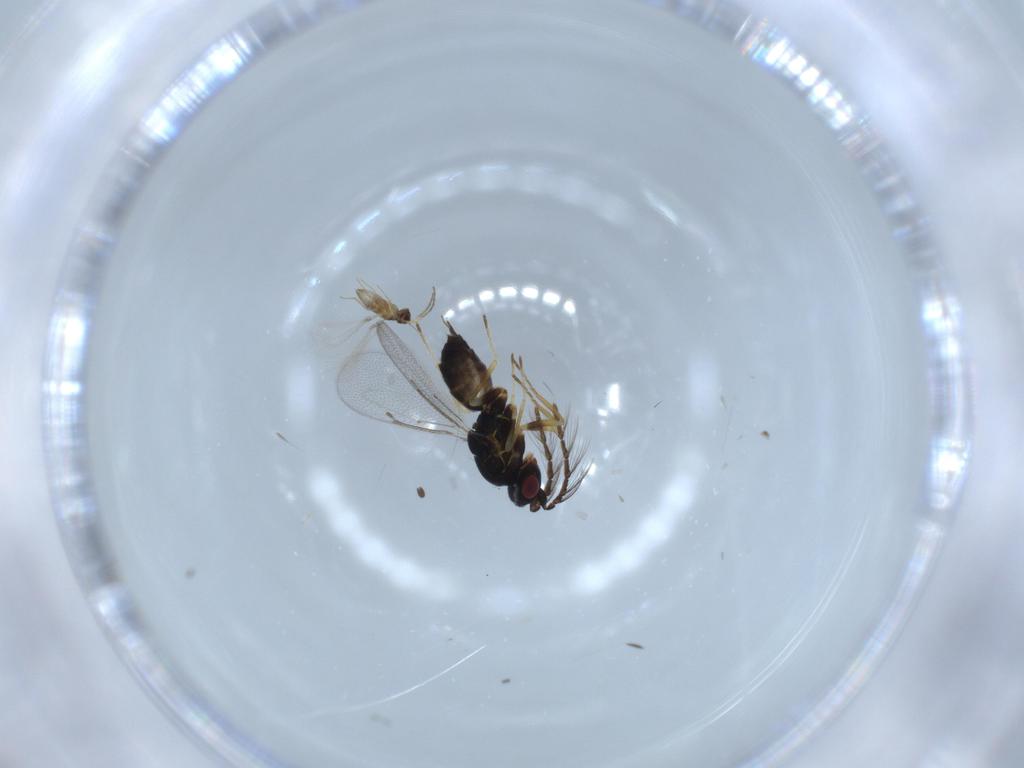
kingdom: Animalia
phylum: Arthropoda
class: Insecta
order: Hymenoptera
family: Eulophidae
